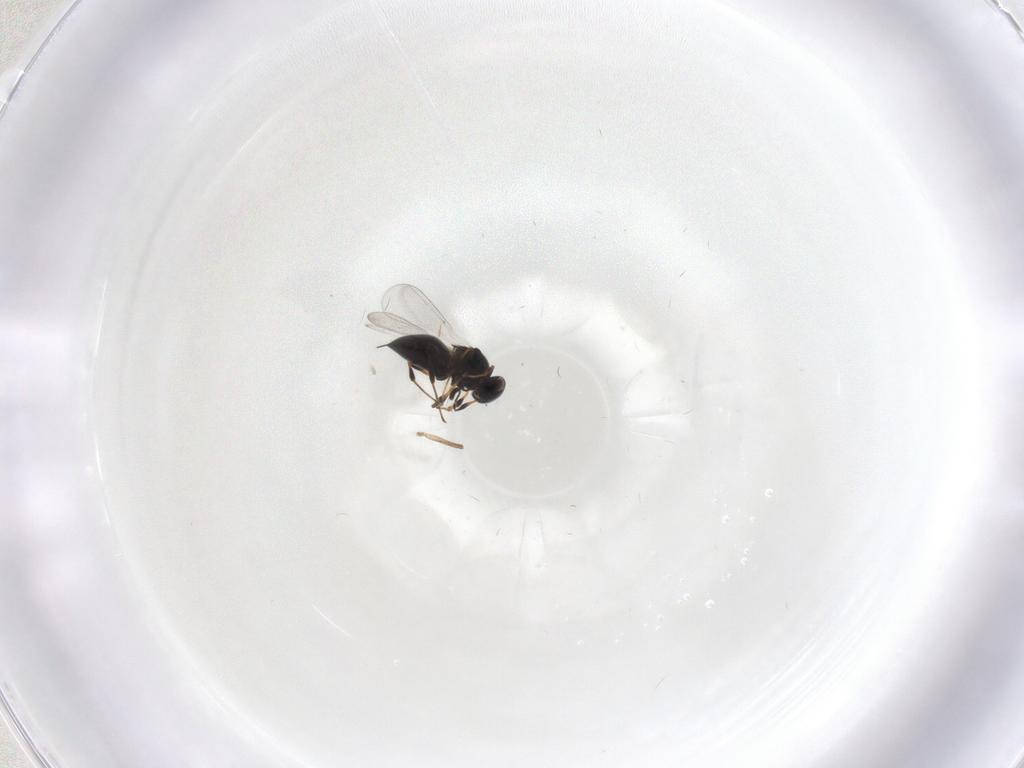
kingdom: Animalia
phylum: Arthropoda
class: Insecta
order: Hymenoptera
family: Platygastridae
